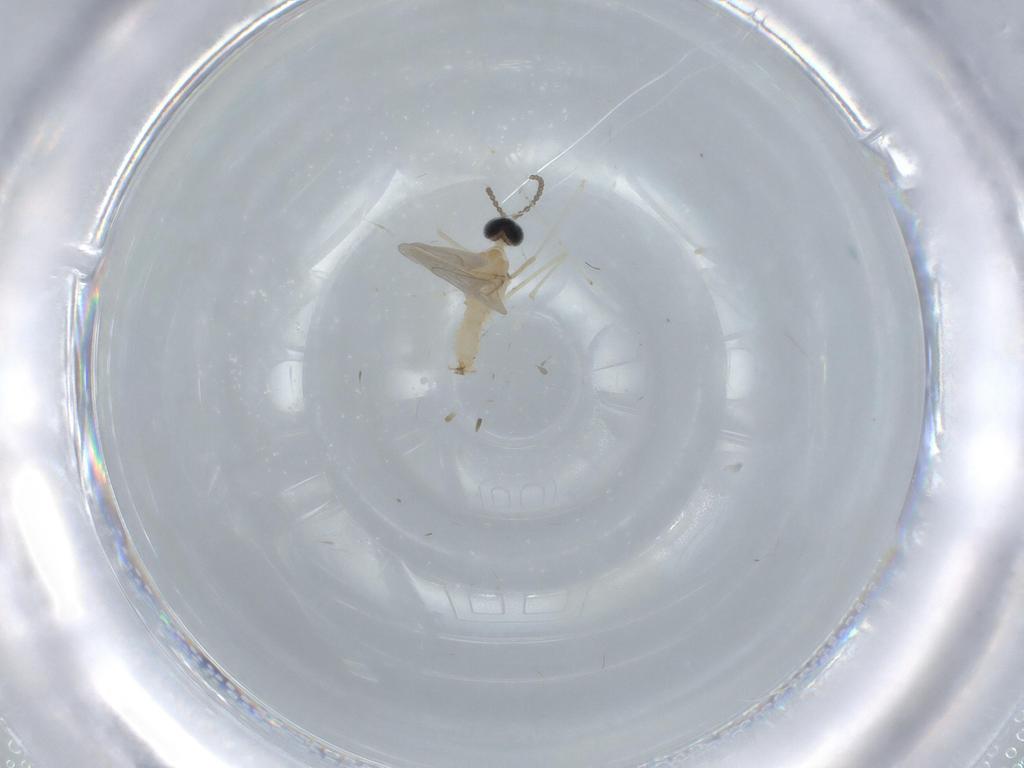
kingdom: Animalia
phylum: Arthropoda
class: Insecta
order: Diptera
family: Cecidomyiidae
